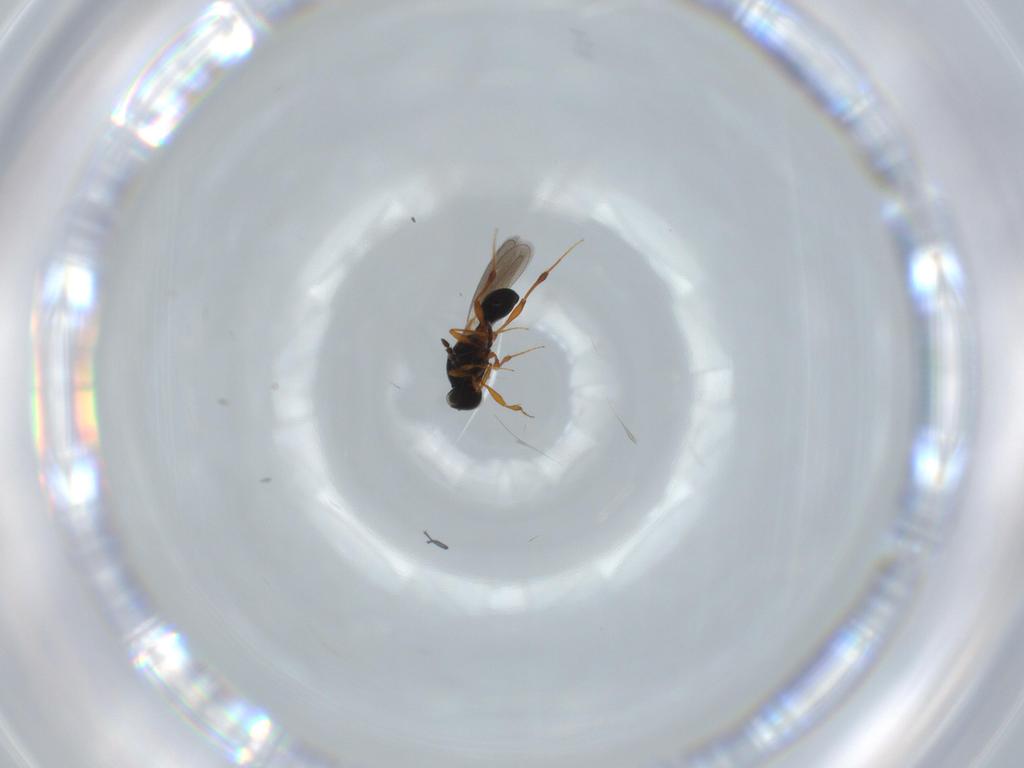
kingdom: Animalia
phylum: Arthropoda
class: Insecta
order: Hymenoptera
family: Platygastridae
